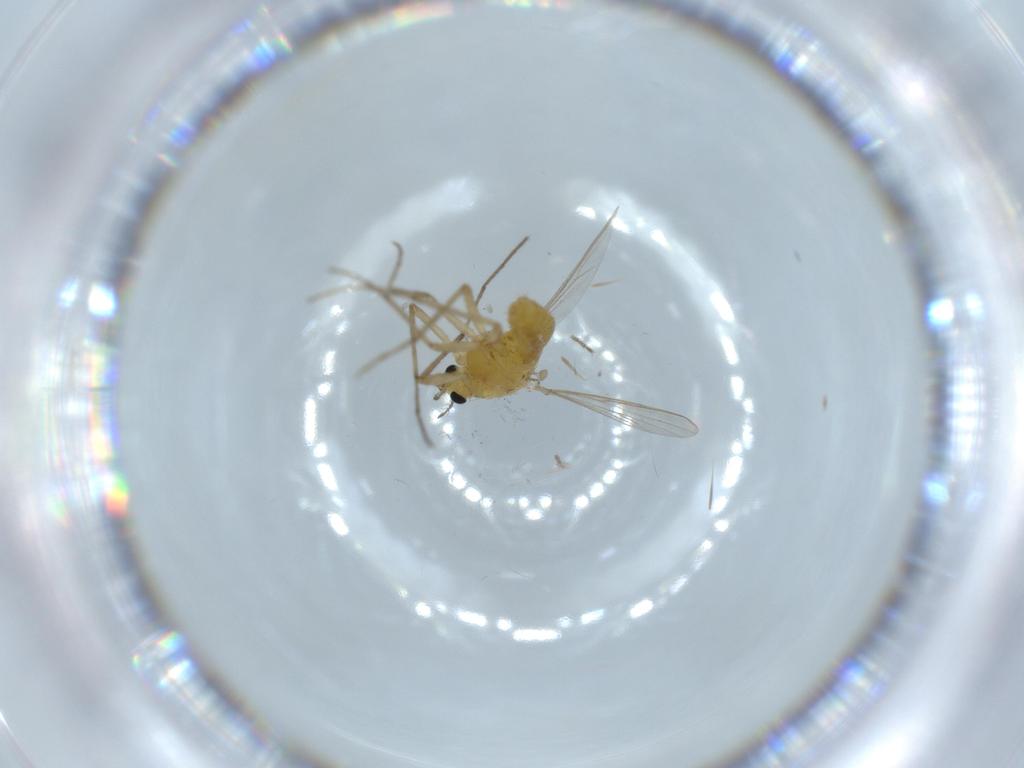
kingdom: Animalia
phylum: Arthropoda
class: Insecta
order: Diptera
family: Chironomidae
